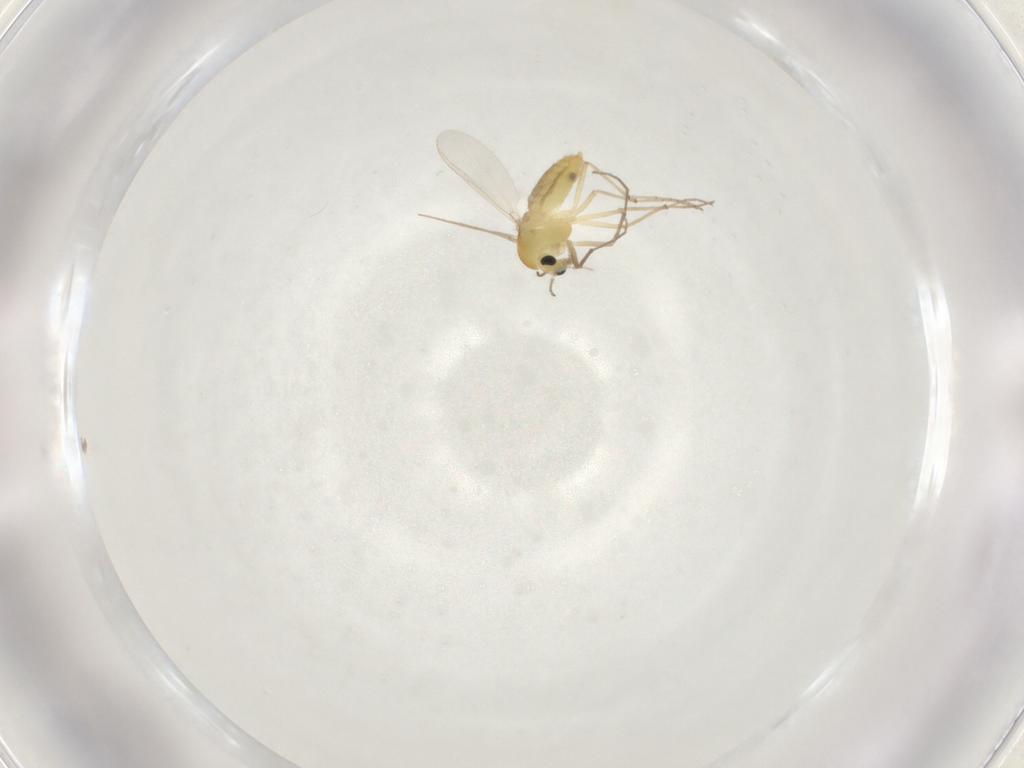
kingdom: Animalia
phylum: Arthropoda
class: Insecta
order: Diptera
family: Chironomidae
